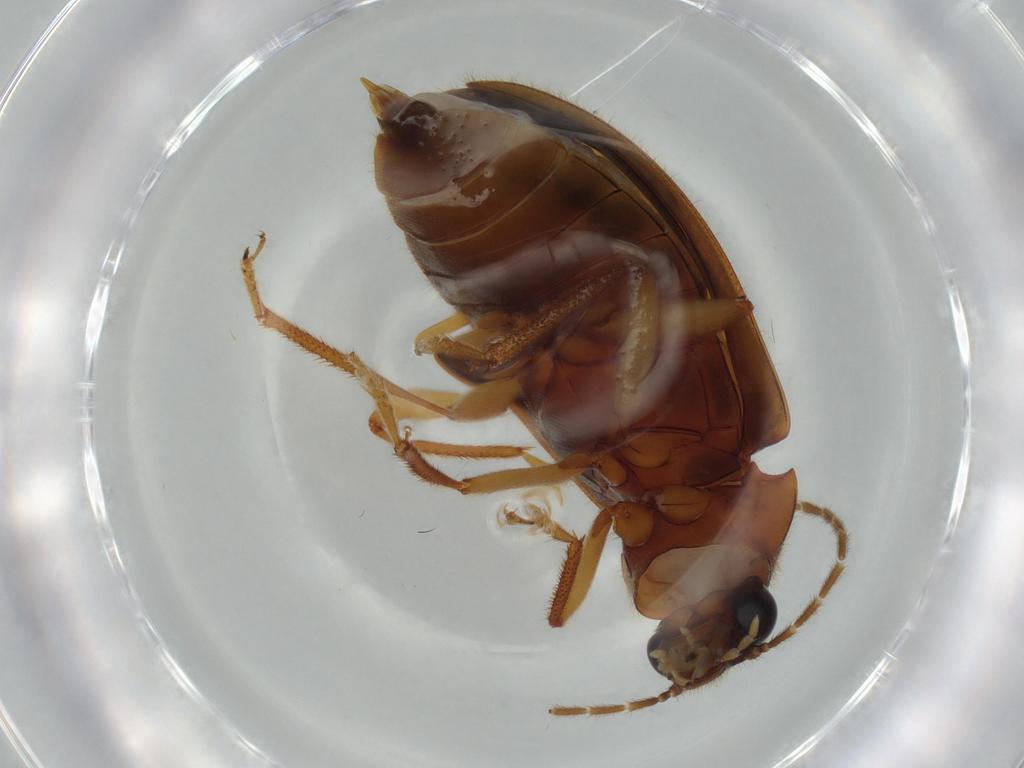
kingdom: Animalia
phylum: Arthropoda
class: Insecta
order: Coleoptera
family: Ptilodactylidae
